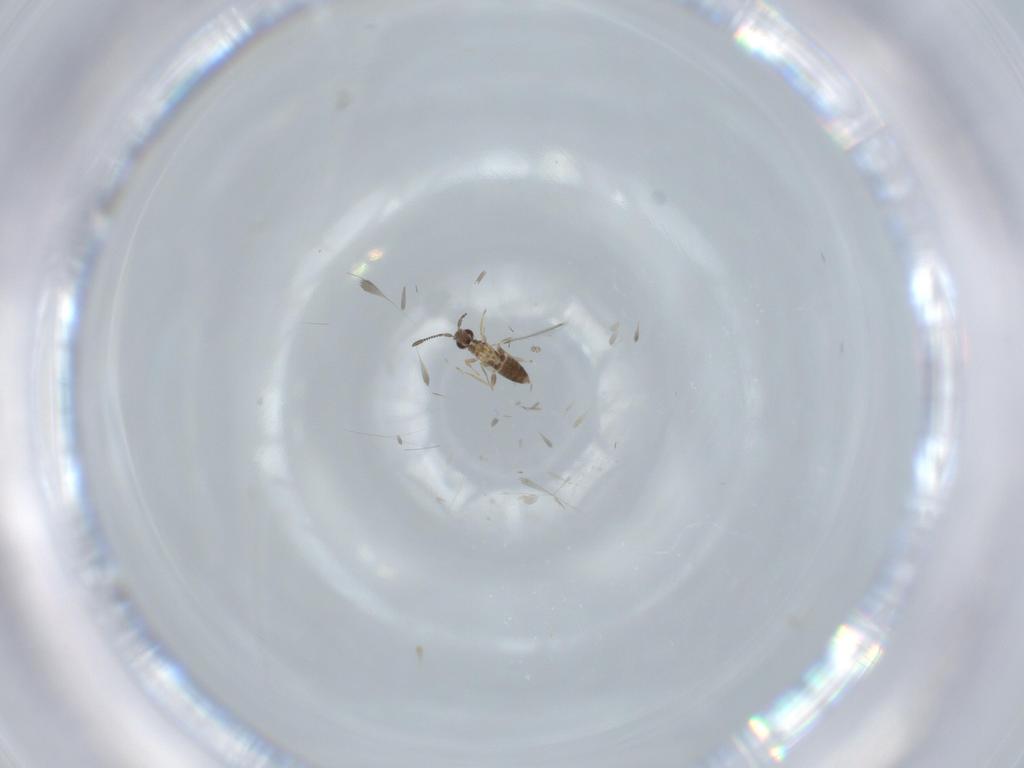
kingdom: Animalia
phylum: Arthropoda
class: Insecta
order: Hymenoptera
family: Mymaridae
